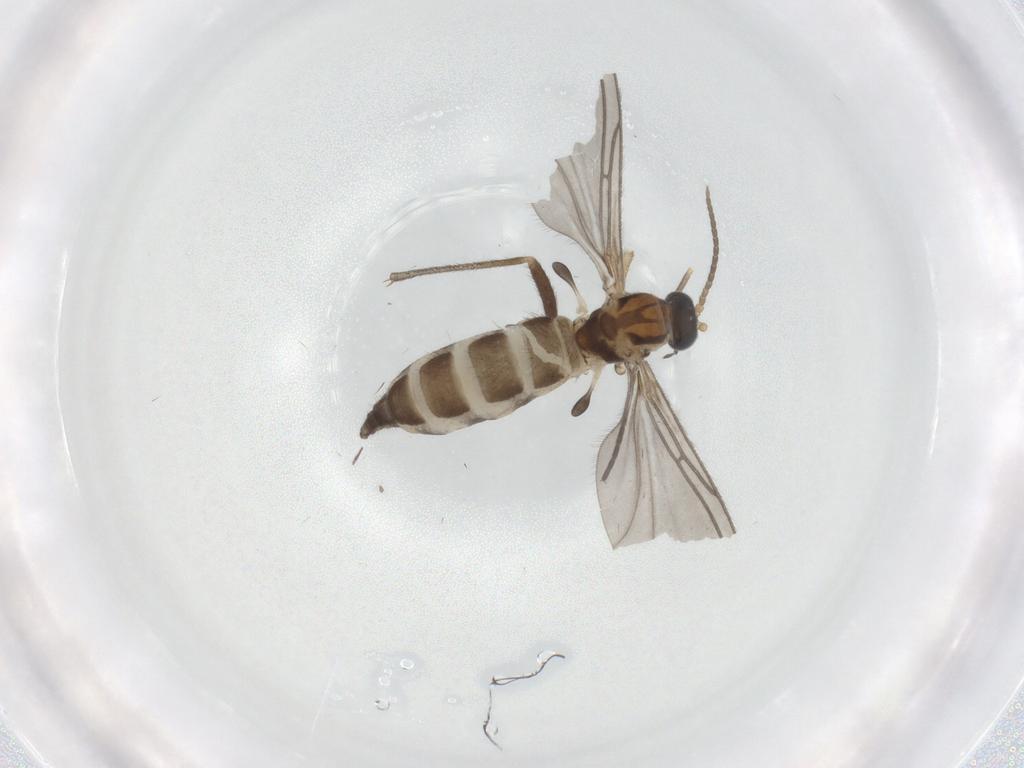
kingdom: Animalia
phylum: Arthropoda
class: Insecta
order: Diptera
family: Sciaridae
